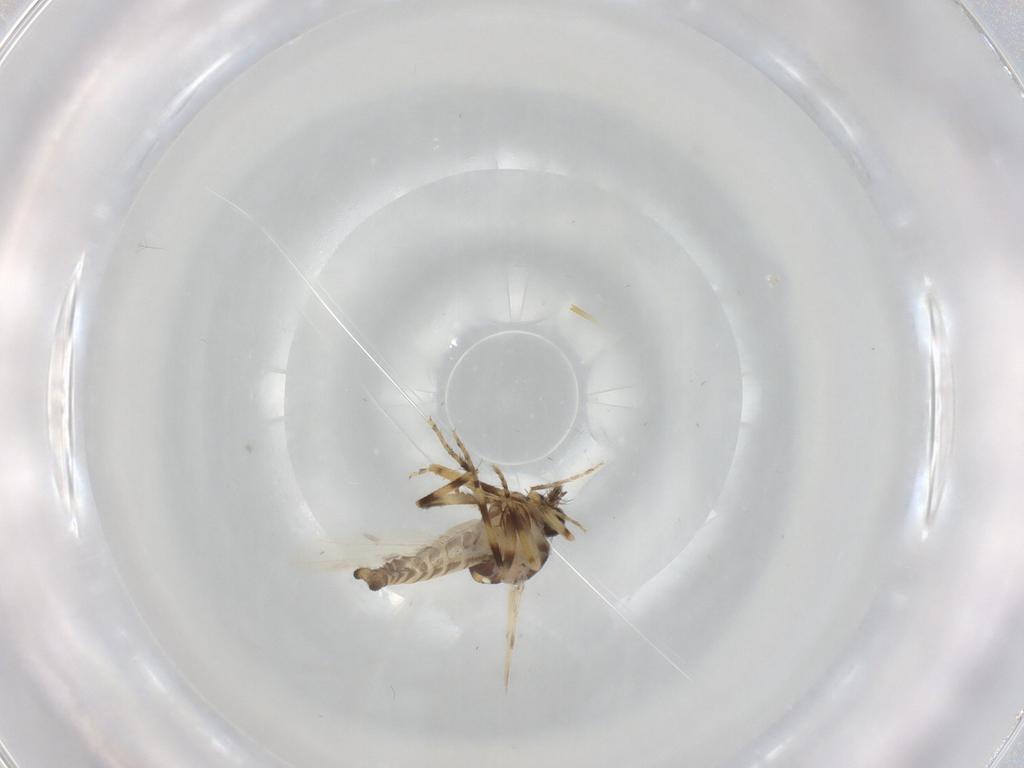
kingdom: Animalia
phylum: Arthropoda
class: Insecta
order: Diptera
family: Ceratopogonidae
